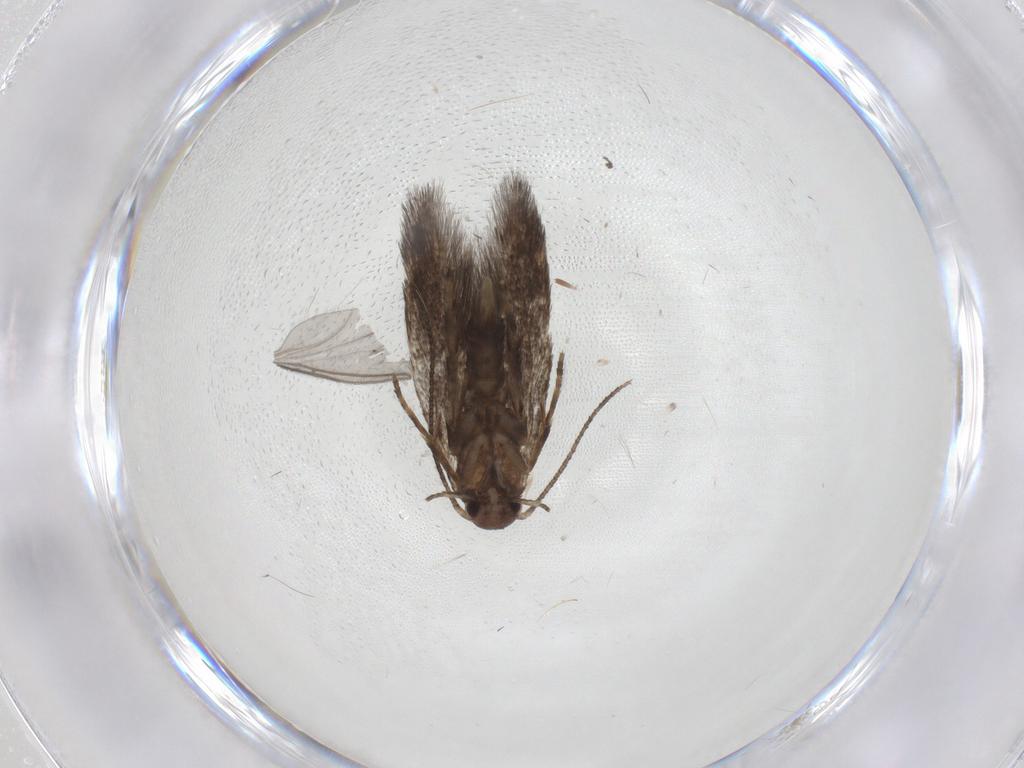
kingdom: Animalia
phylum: Arthropoda
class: Insecta
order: Lepidoptera
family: Elachistidae
